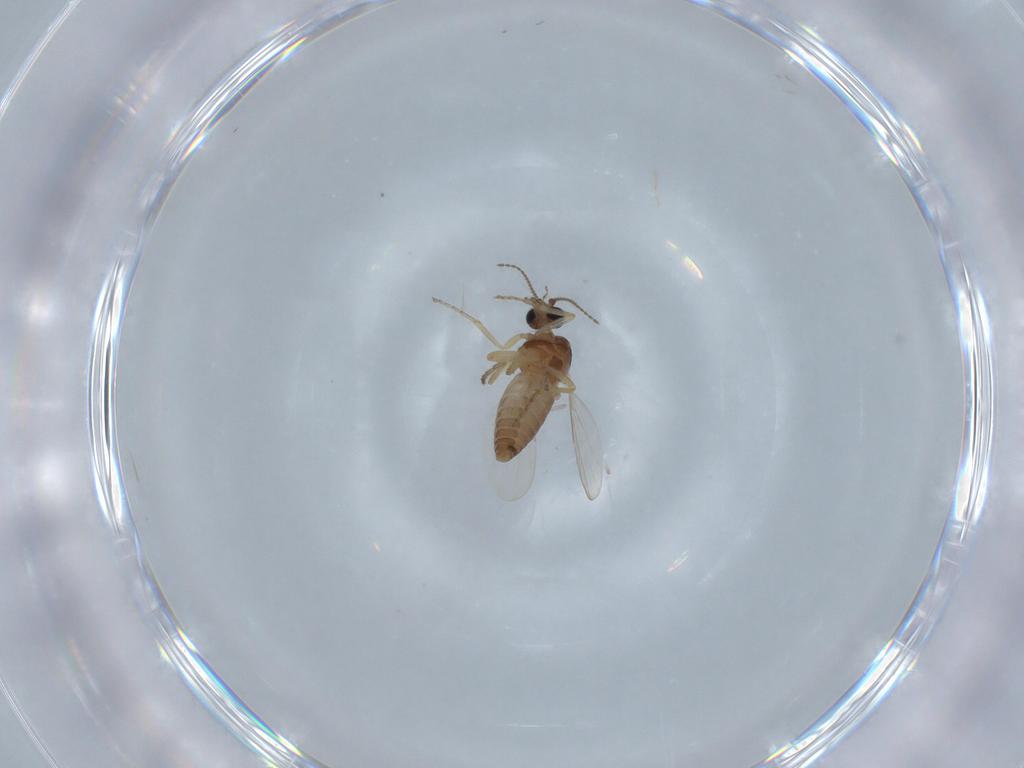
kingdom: Animalia
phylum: Arthropoda
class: Insecta
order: Diptera
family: Ceratopogonidae
